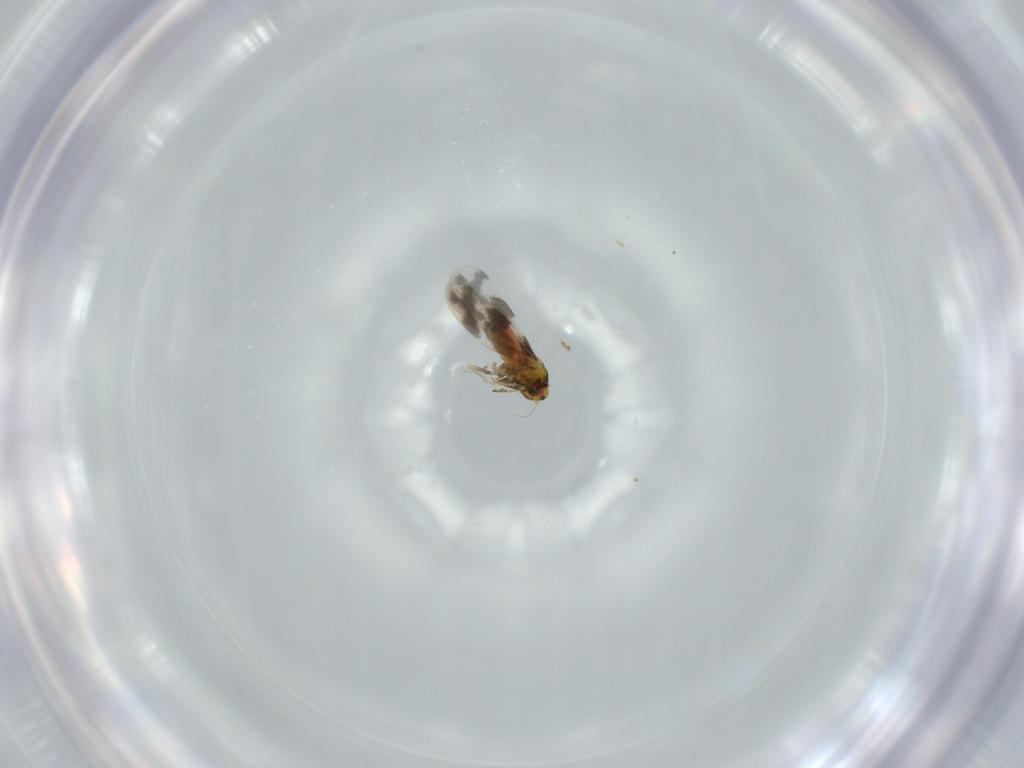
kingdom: Animalia
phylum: Arthropoda
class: Insecta
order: Hemiptera
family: Aleyrodidae
